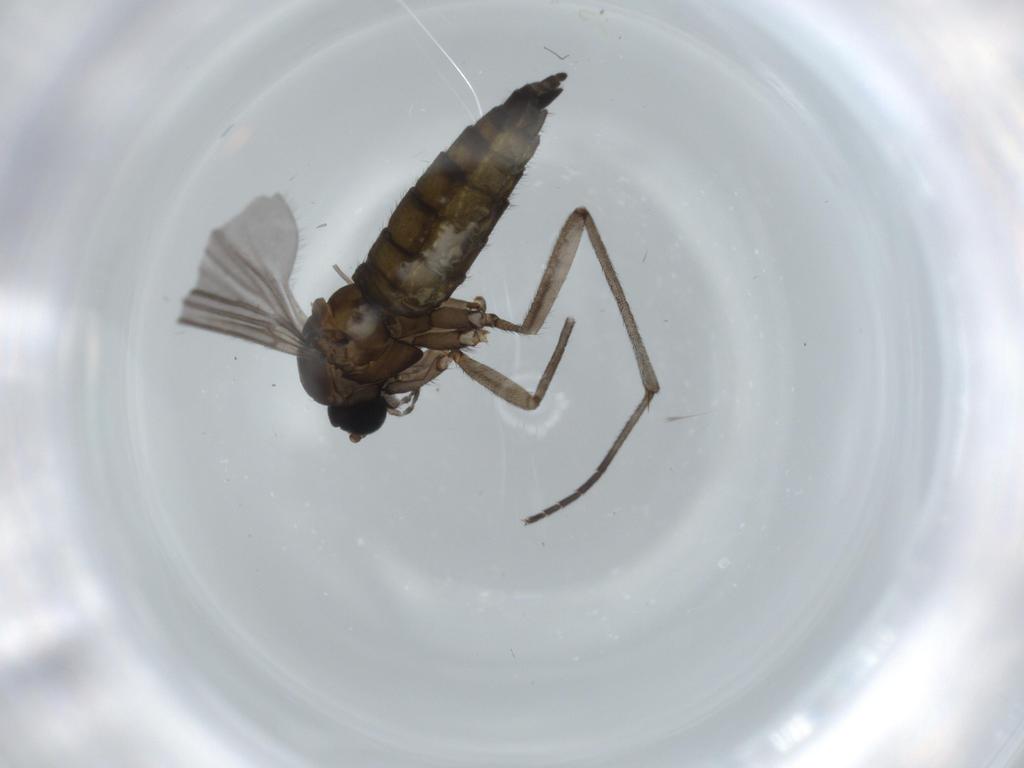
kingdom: Animalia
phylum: Arthropoda
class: Insecta
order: Diptera
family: Sciaridae
